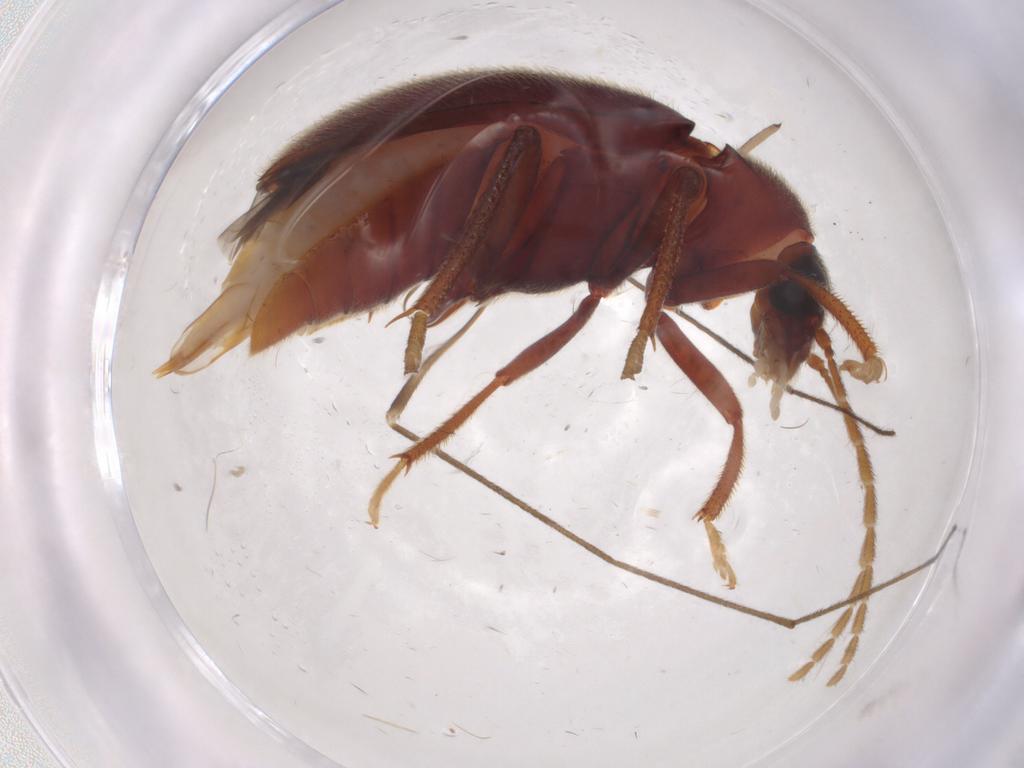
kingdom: Animalia
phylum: Arthropoda
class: Insecta
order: Coleoptera
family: Ptilodactylidae
